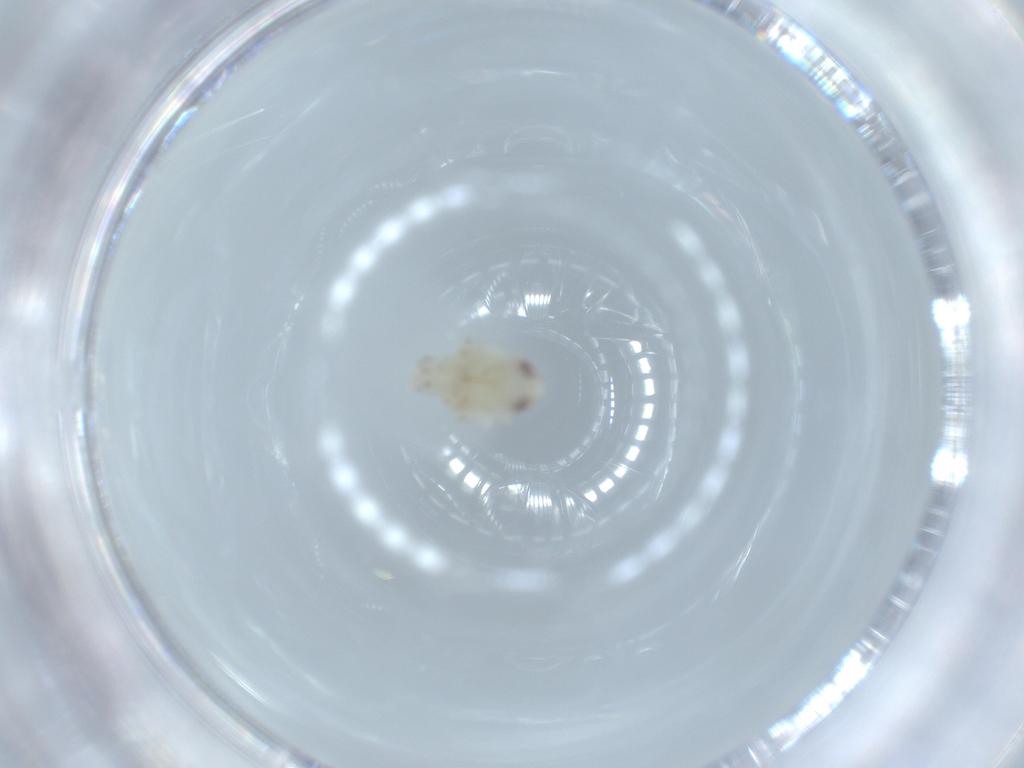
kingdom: Animalia
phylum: Arthropoda
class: Insecta
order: Hemiptera
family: Nogodinidae
